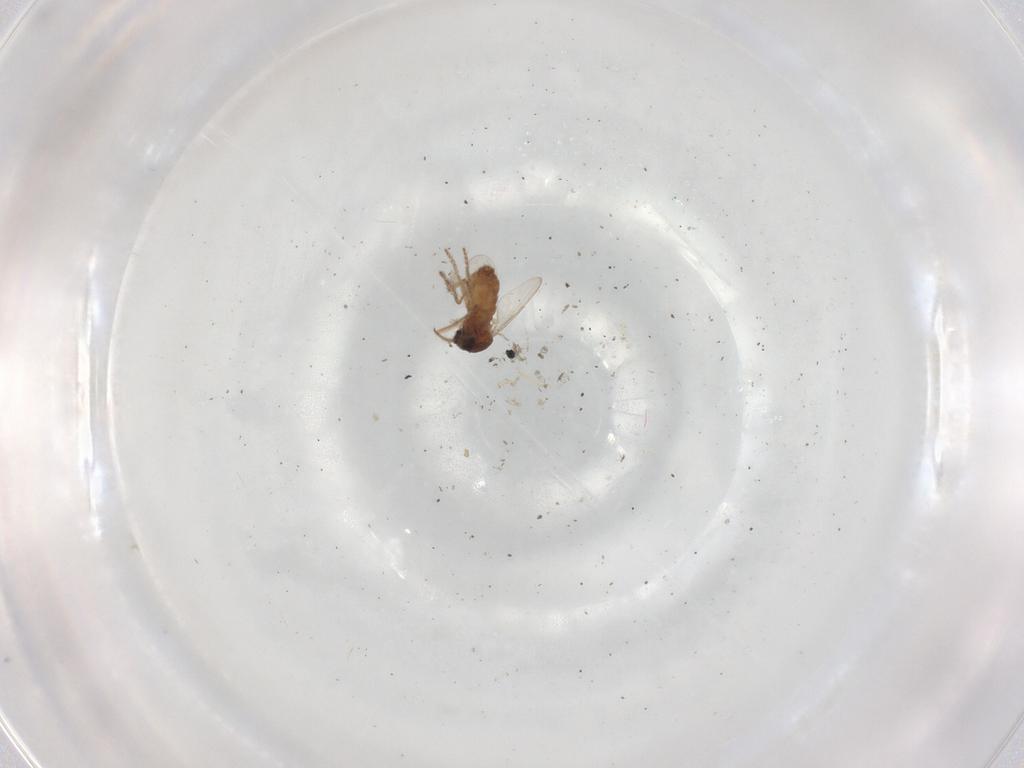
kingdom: Animalia
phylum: Arthropoda
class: Insecta
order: Diptera
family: Ceratopogonidae
